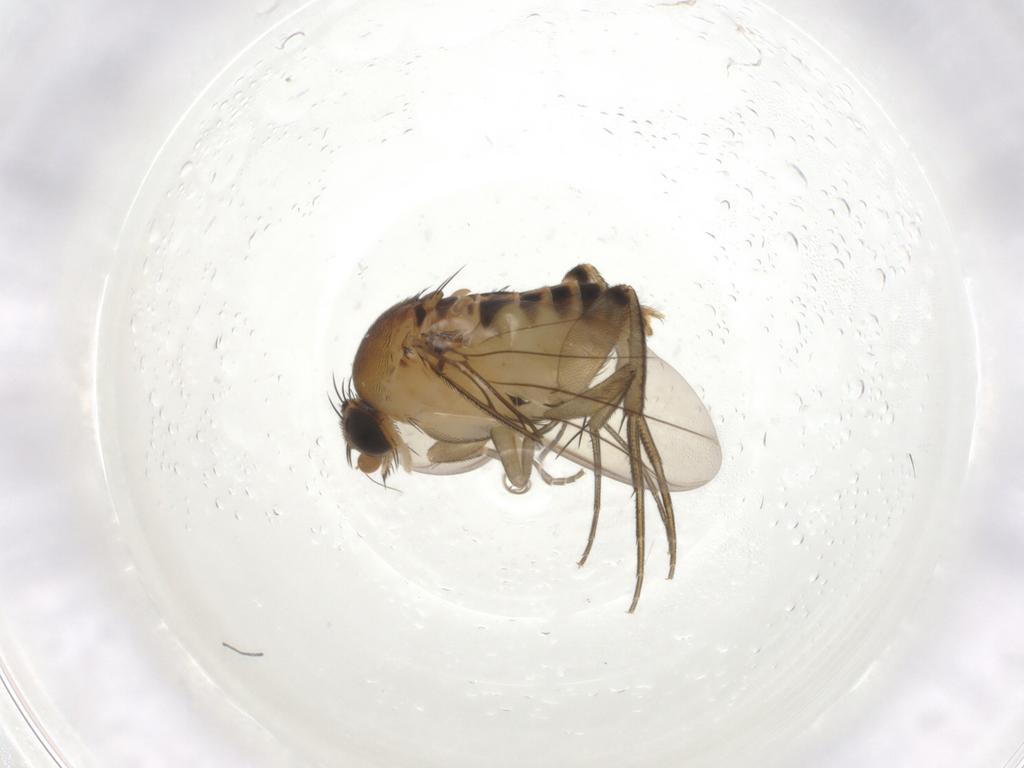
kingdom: Animalia
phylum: Arthropoda
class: Insecta
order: Diptera
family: Phoridae
